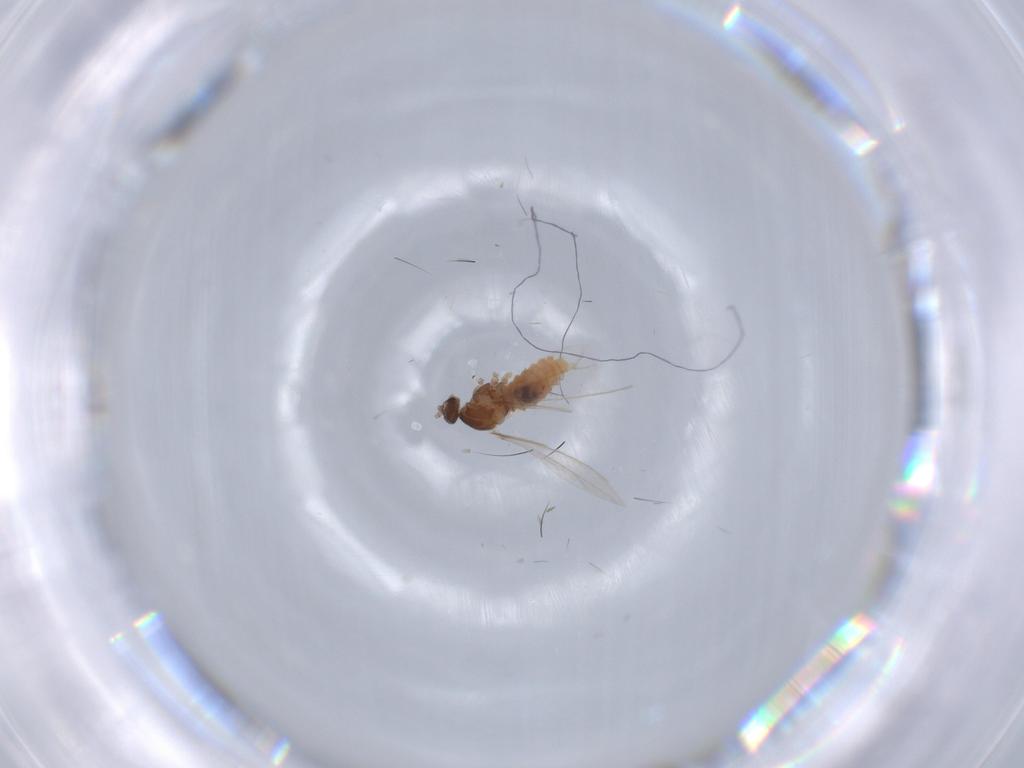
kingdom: Animalia
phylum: Arthropoda
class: Insecta
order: Diptera
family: Cecidomyiidae
